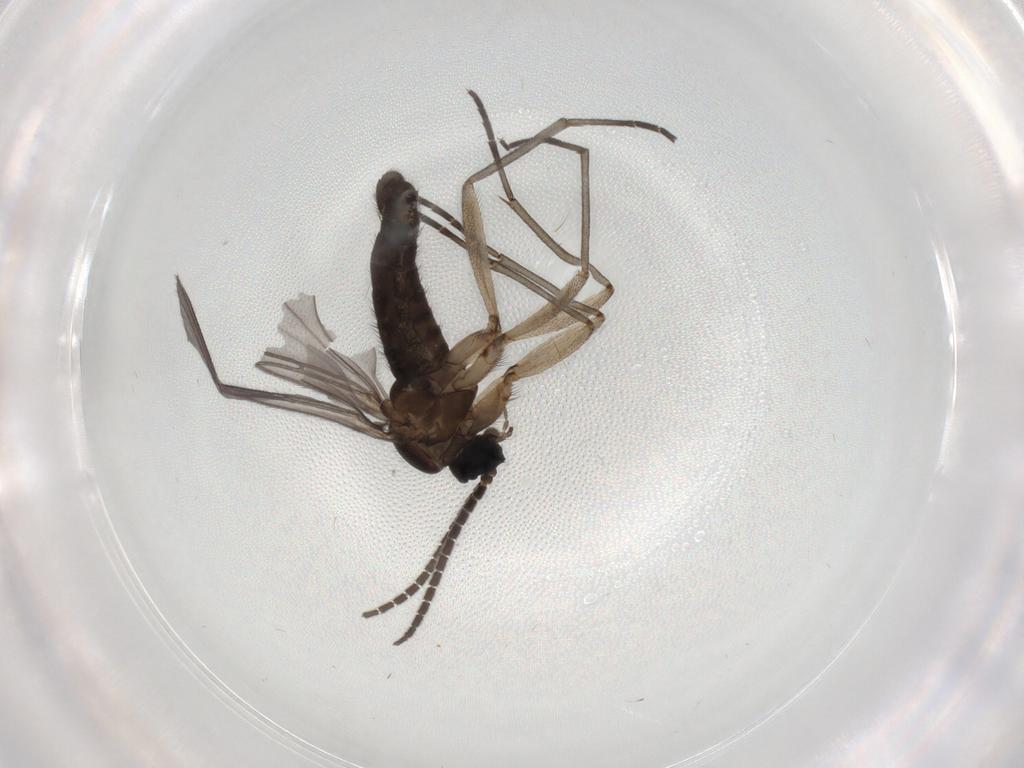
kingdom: Animalia
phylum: Arthropoda
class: Insecta
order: Diptera
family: Sciaridae
